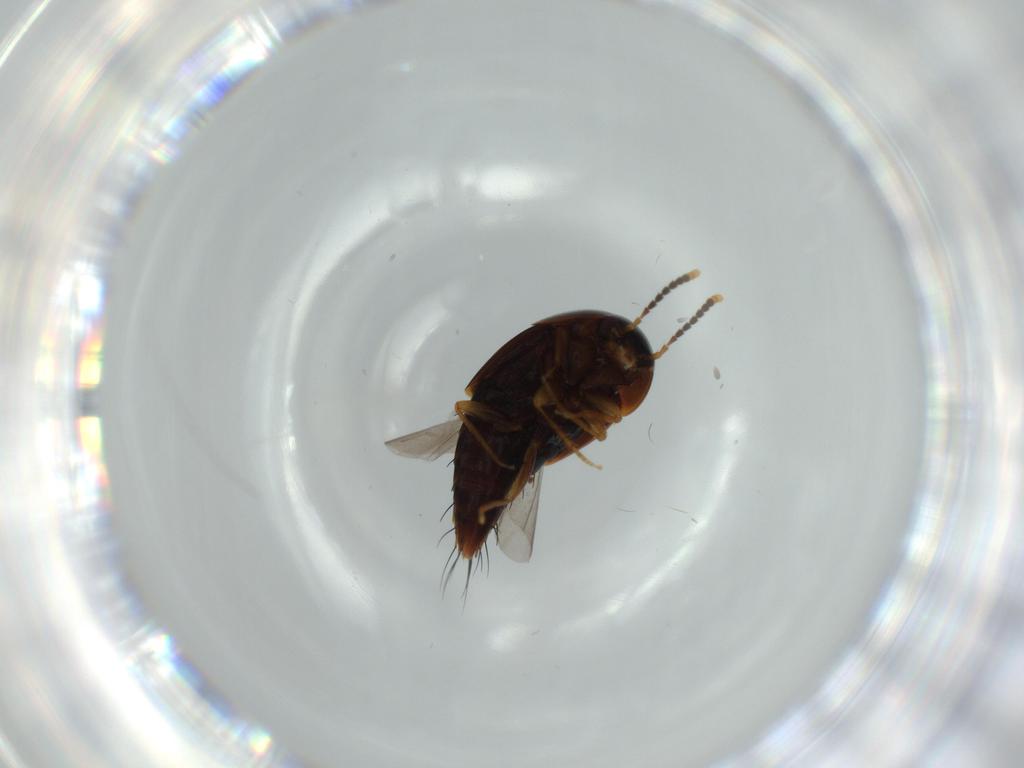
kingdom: Animalia
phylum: Arthropoda
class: Insecta
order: Coleoptera
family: Staphylinidae
